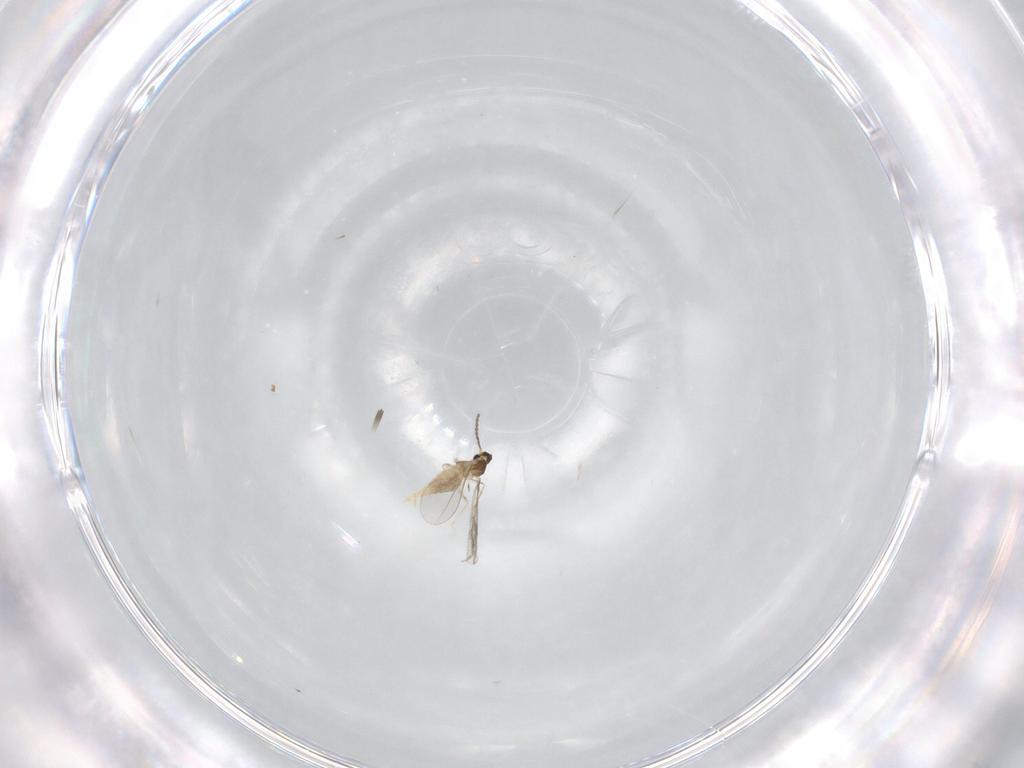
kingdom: Animalia
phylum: Arthropoda
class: Insecta
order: Diptera
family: Cecidomyiidae
